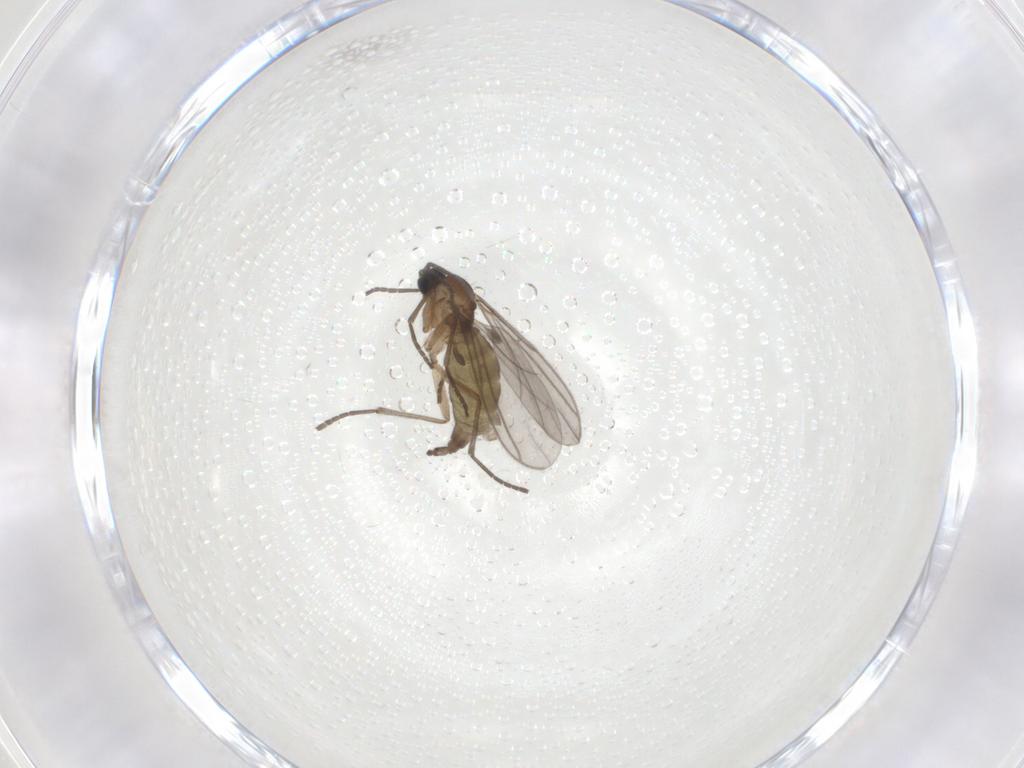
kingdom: Animalia
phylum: Arthropoda
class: Insecta
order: Diptera
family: Sciaridae
